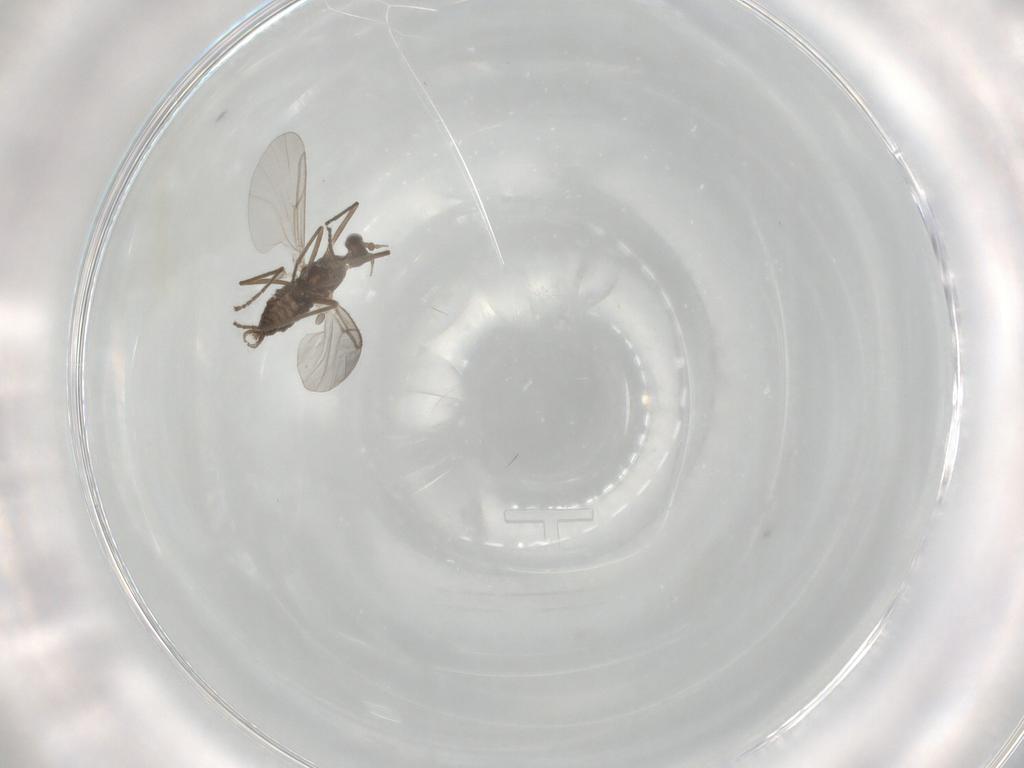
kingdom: Animalia
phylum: Arthropoda
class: Insecta
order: Diptera
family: Cecidomyiidae
